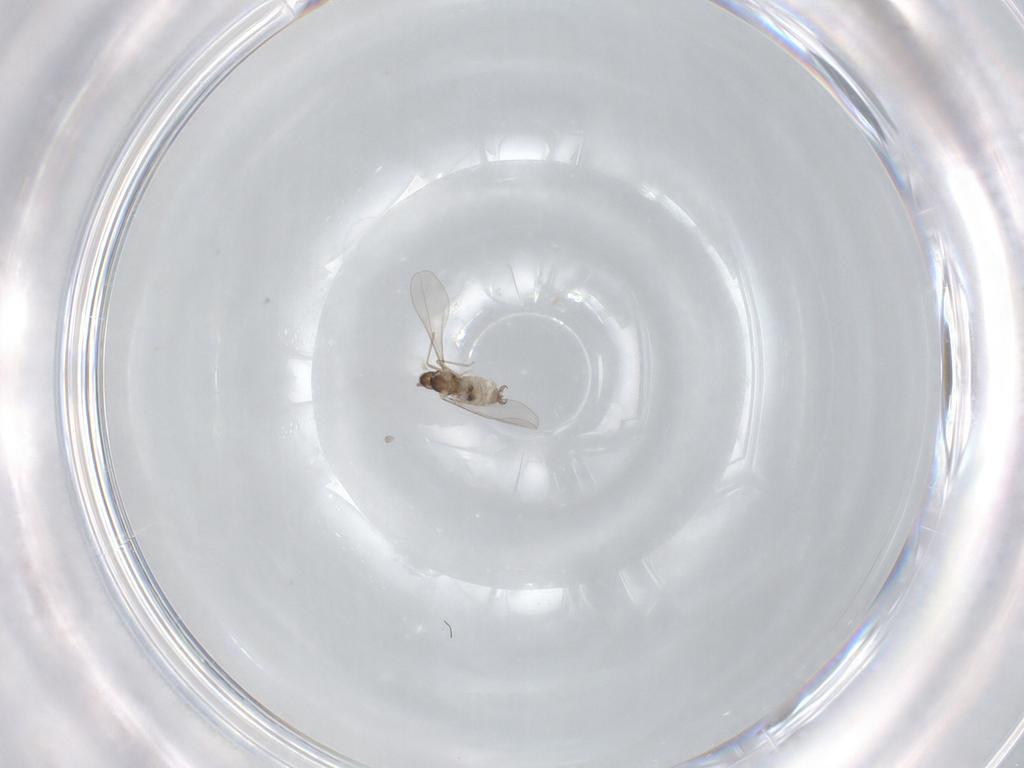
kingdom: Animalia
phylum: Arthropoda
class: Insecta
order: Diptera
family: Cecidomyiidae
